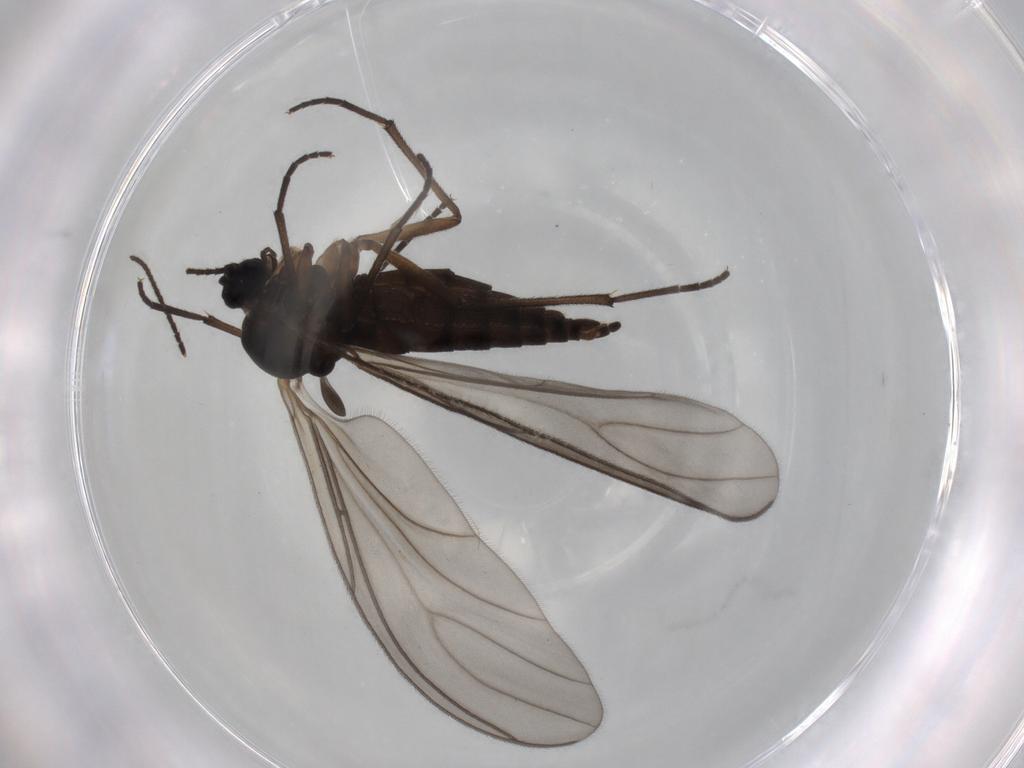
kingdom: Animalia
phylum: Arthropoda
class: Insecta
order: Diptera
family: Sciaridae
